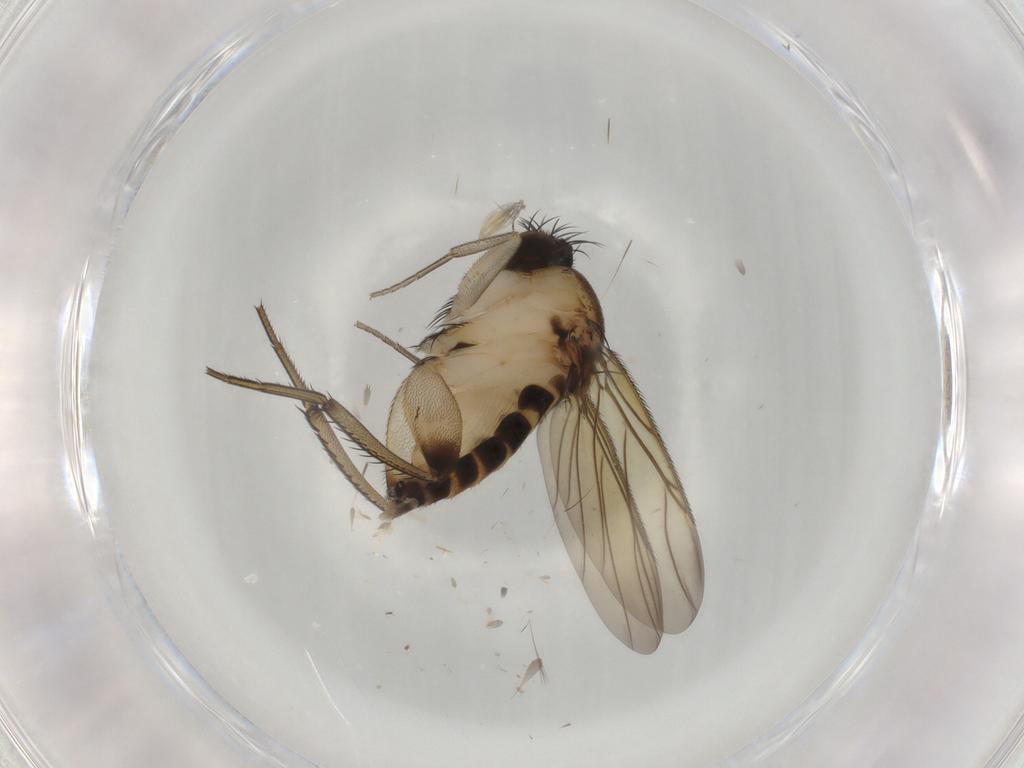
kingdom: Animalia
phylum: Arthropoda
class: Insecta
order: Diptera
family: Ceratopogonidae
